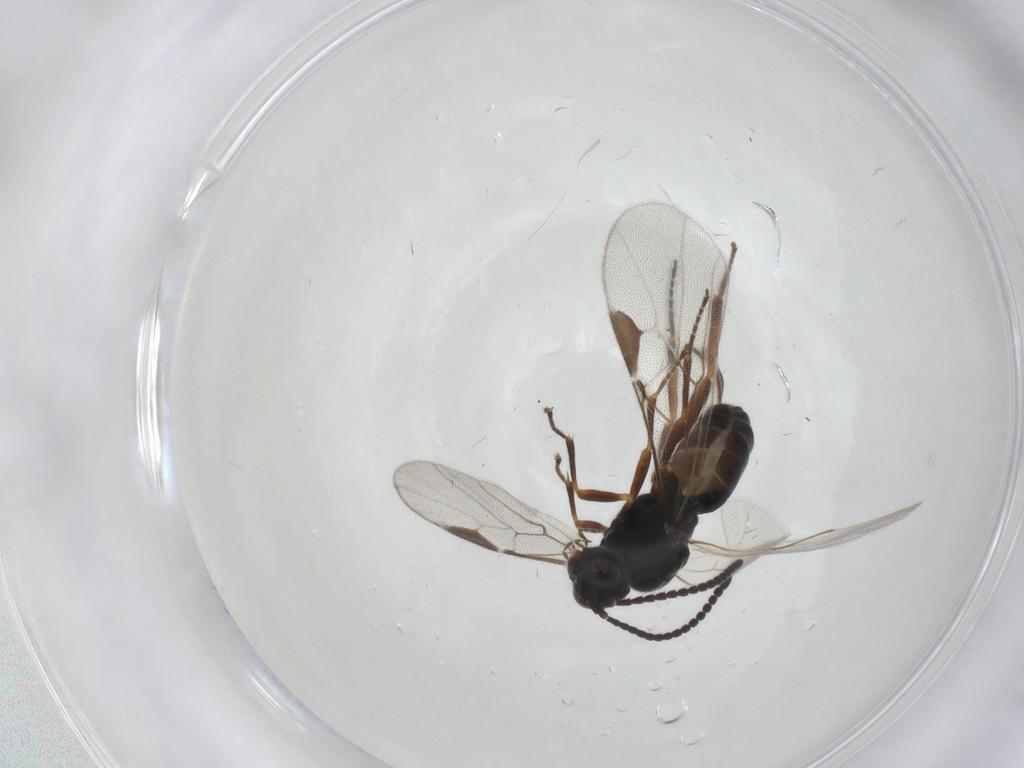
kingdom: Animalia
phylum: Arthropoda
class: Insecta
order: Hymenoptera
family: Braconidae
